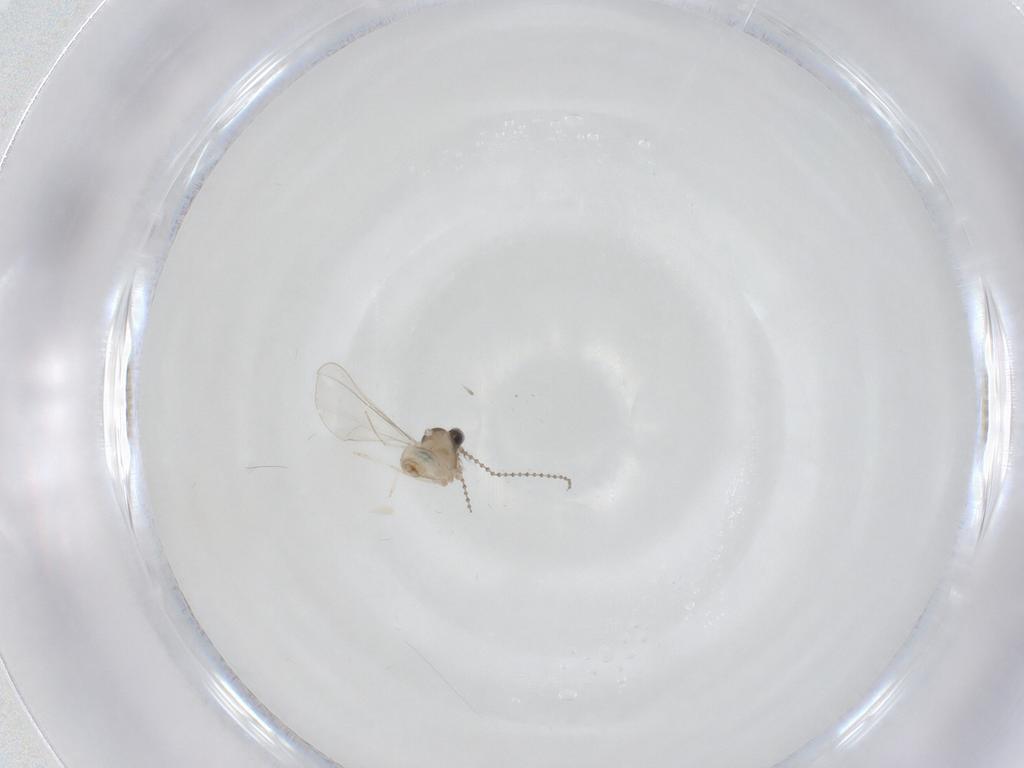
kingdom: Animalia
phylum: Arthropoda
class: Insecta
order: Diptera
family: Cecidomyiidae
